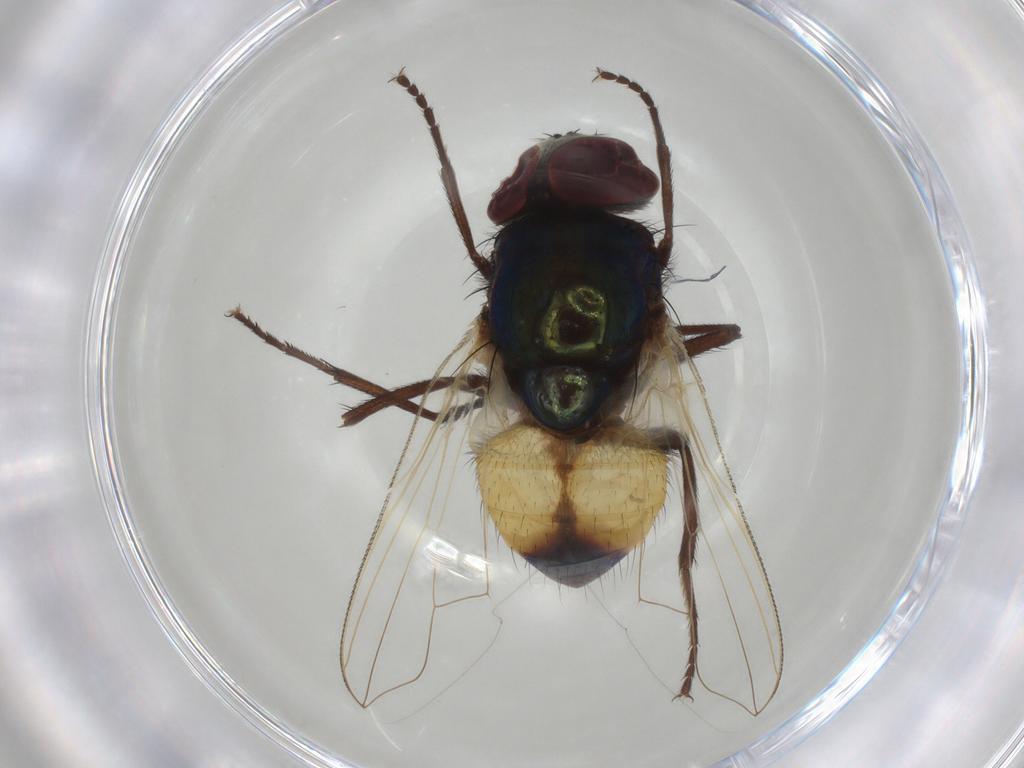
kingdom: Animalia
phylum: Arthropoda
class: Insecta
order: Diptera
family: Muscidae
